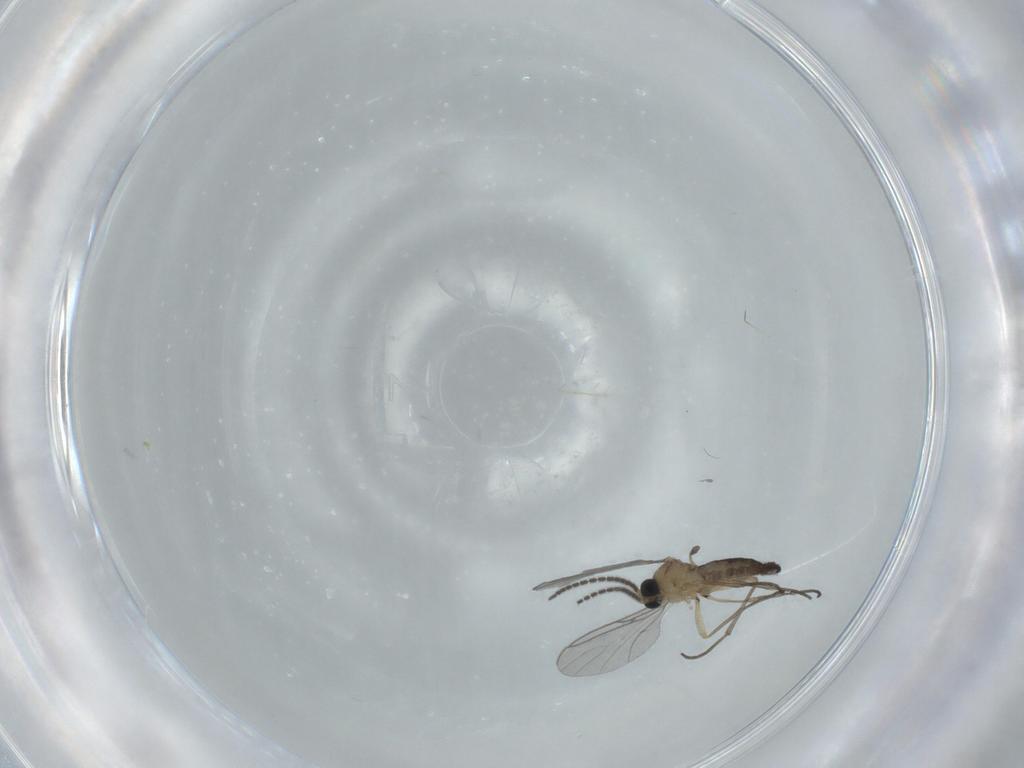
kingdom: Animalia
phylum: Arthropoda
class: Insecta
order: Diptera
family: Sciaridae
